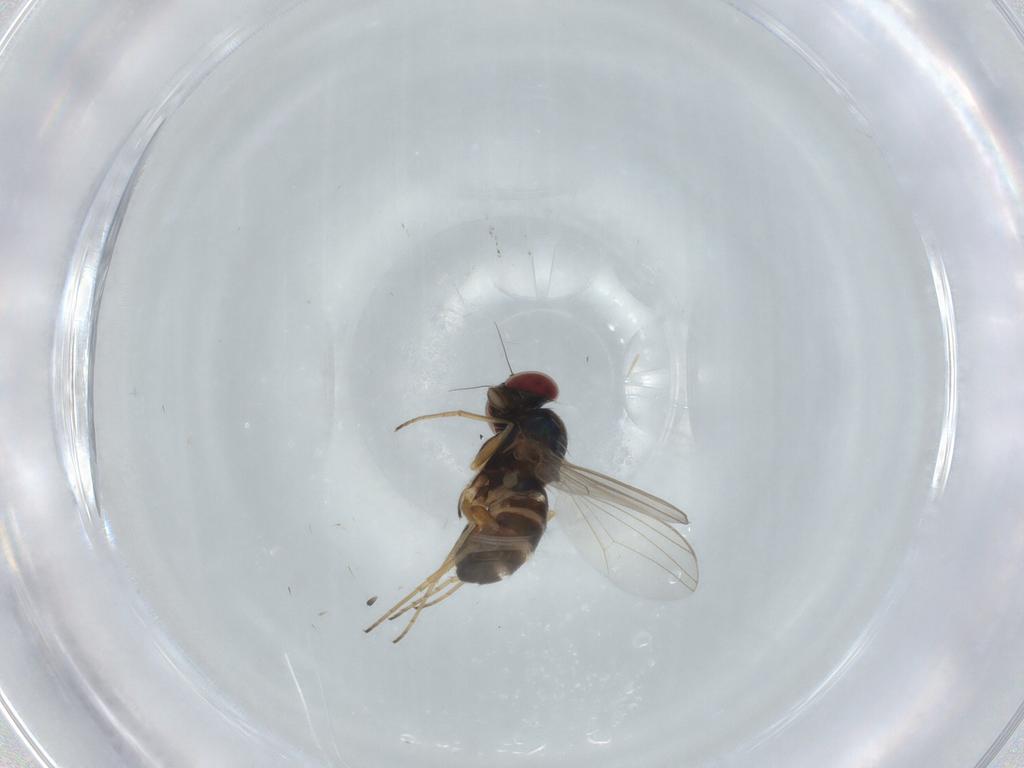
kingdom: Animalia
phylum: Arthropoda
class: Insecta
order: Diptera
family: Dolichopodidae
